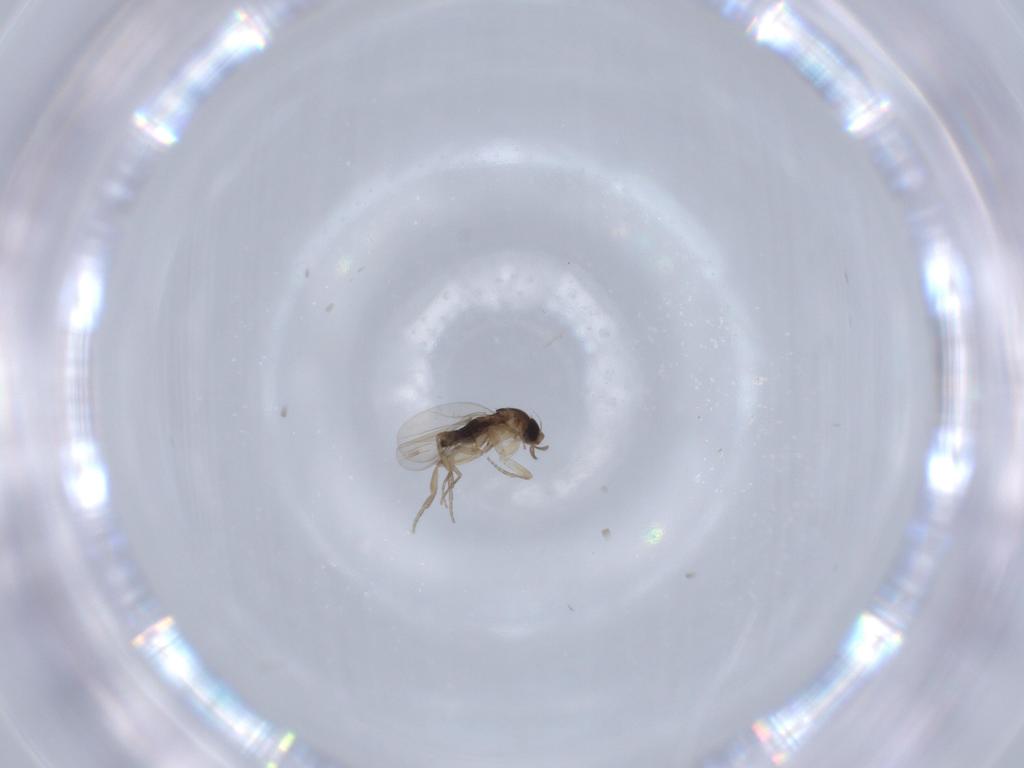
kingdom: Animalia
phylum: Arthropoda
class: Insecta
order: Diptera
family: Phoridae
